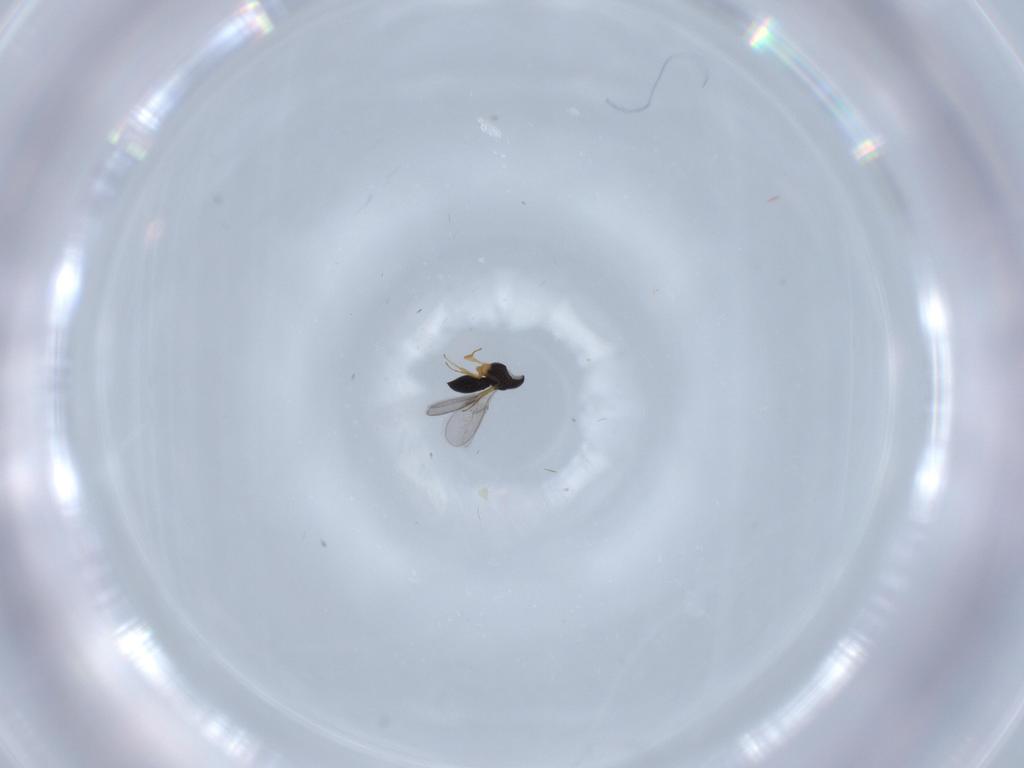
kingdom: Animalia
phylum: Arthropoda
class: Insecta
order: Hymenoptera
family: Scelionidae
